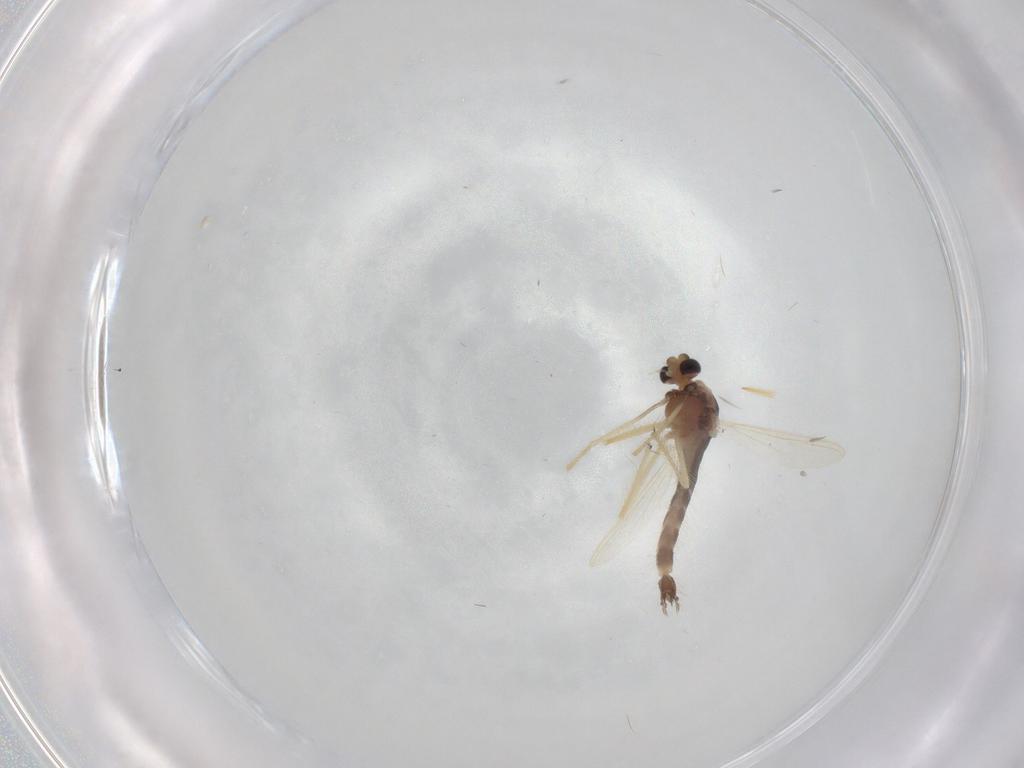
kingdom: Animalia
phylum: Arthropoda
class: Insecta
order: Diptera
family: Chironomidae
